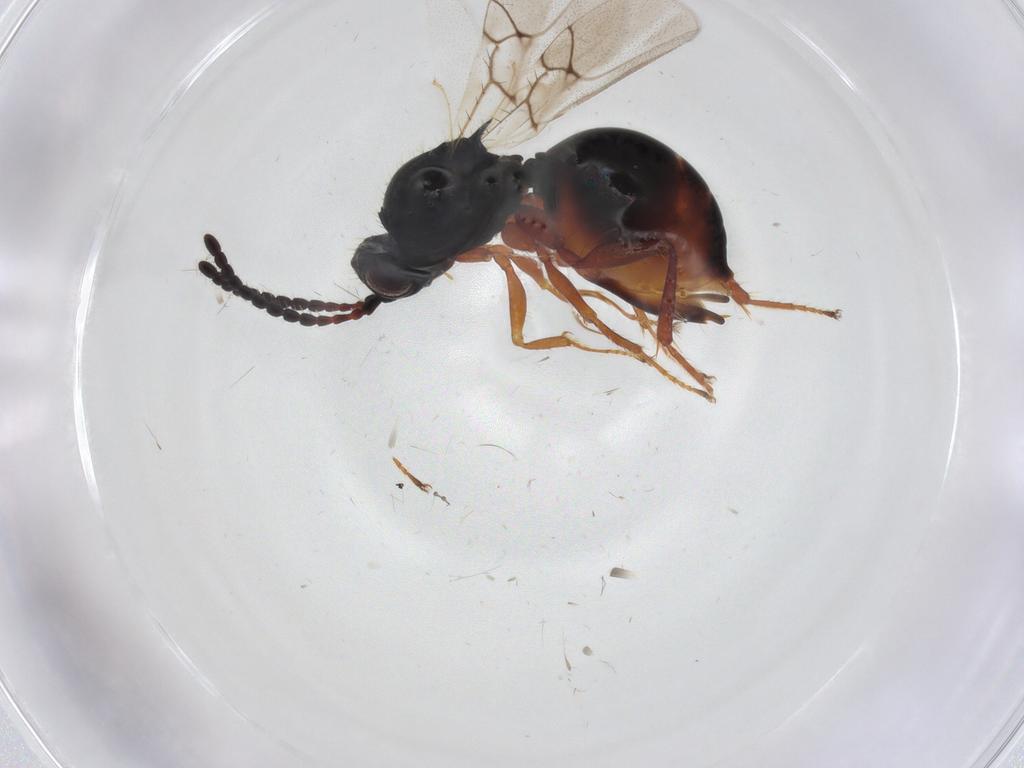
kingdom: Animalia
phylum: Arthropoda
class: Insecta
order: Hymenoptera
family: Figitidae
